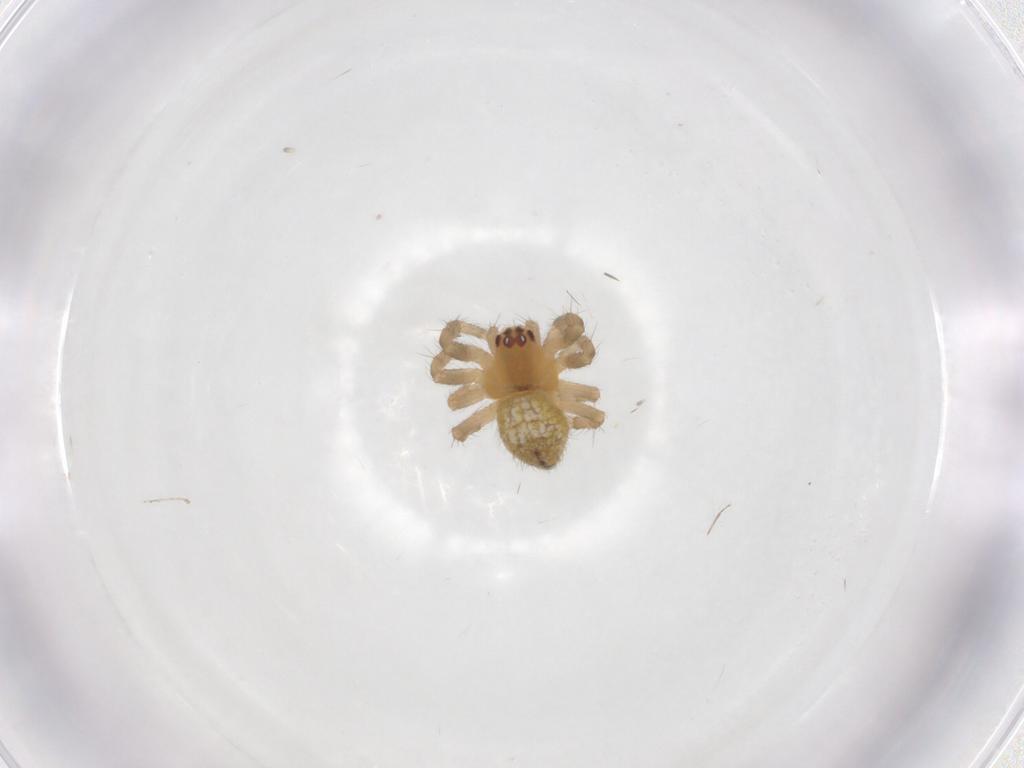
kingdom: Animalia
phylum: Arthropoda
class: Arachnida
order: Araneae
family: Araneidae
